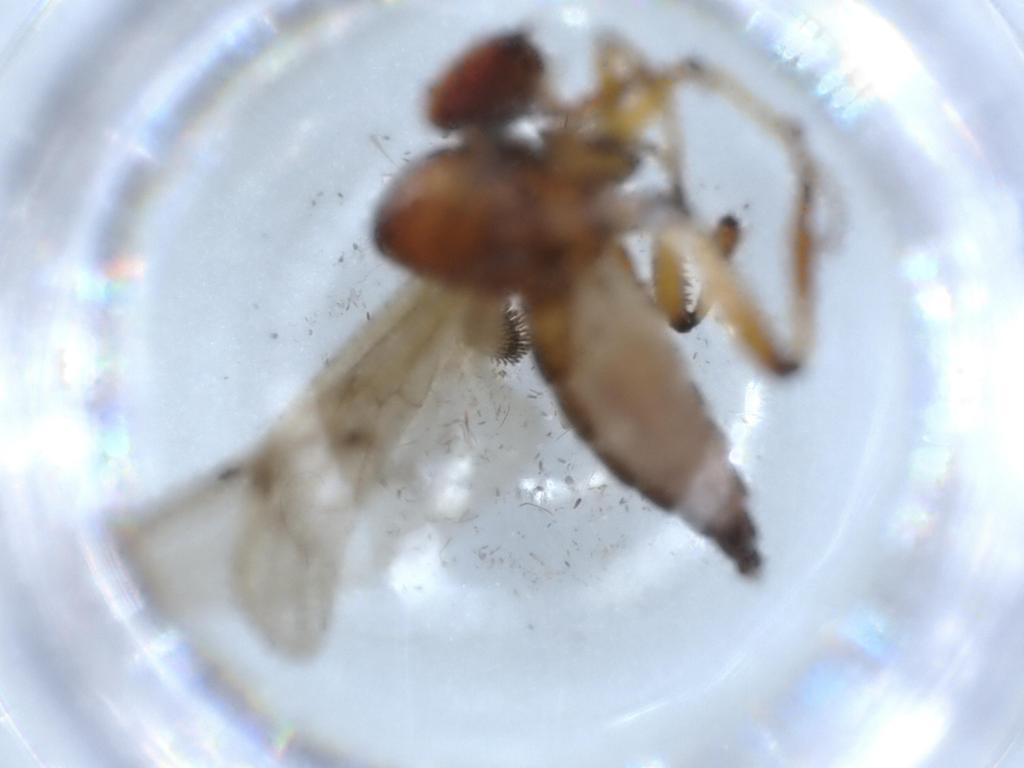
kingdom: Animalia
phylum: Arthropoda
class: Insecta
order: Diptera
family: Hybotidae
